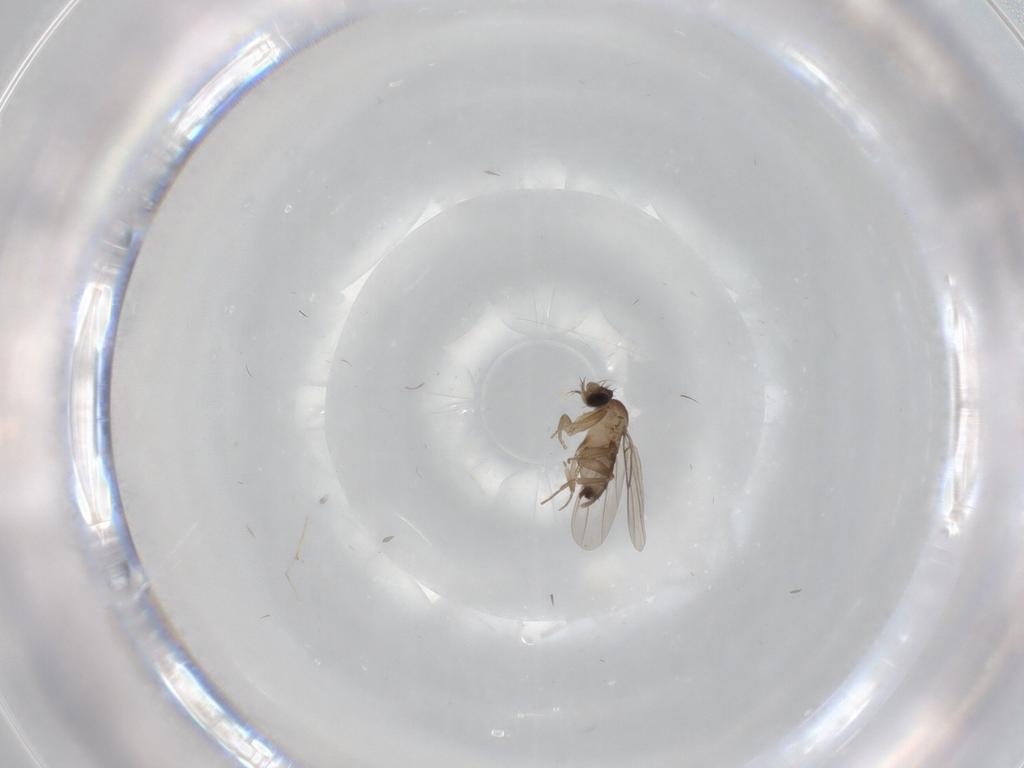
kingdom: Animalia
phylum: Arthropoda
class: Insecta
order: Diptera
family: Phoridae
